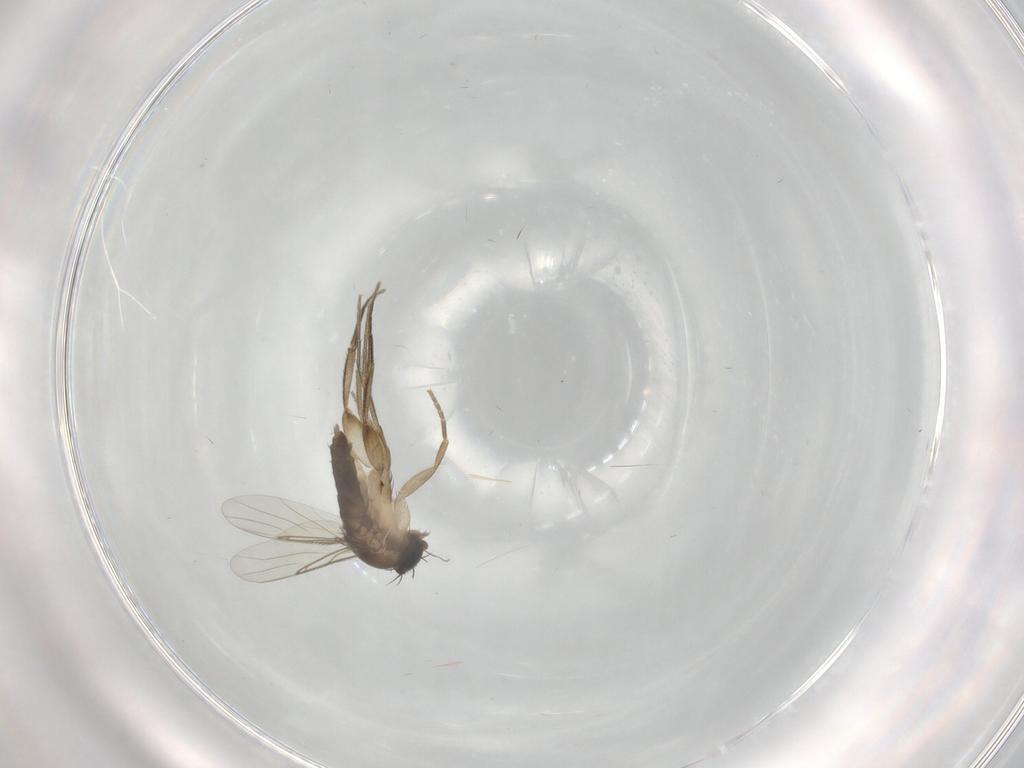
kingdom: Animalia
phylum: Arthropoda
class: Insecta
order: Diptera
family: Phoridae
